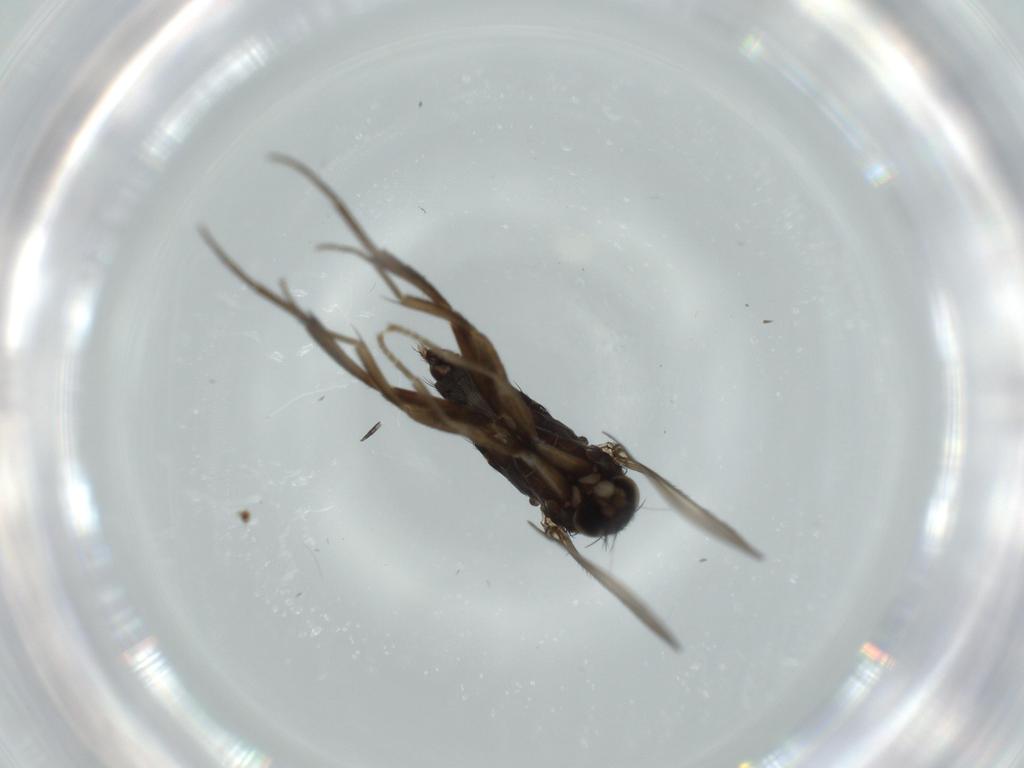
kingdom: Animalia
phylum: Arthropoda
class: Insecta
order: Diptera
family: Phoridae
